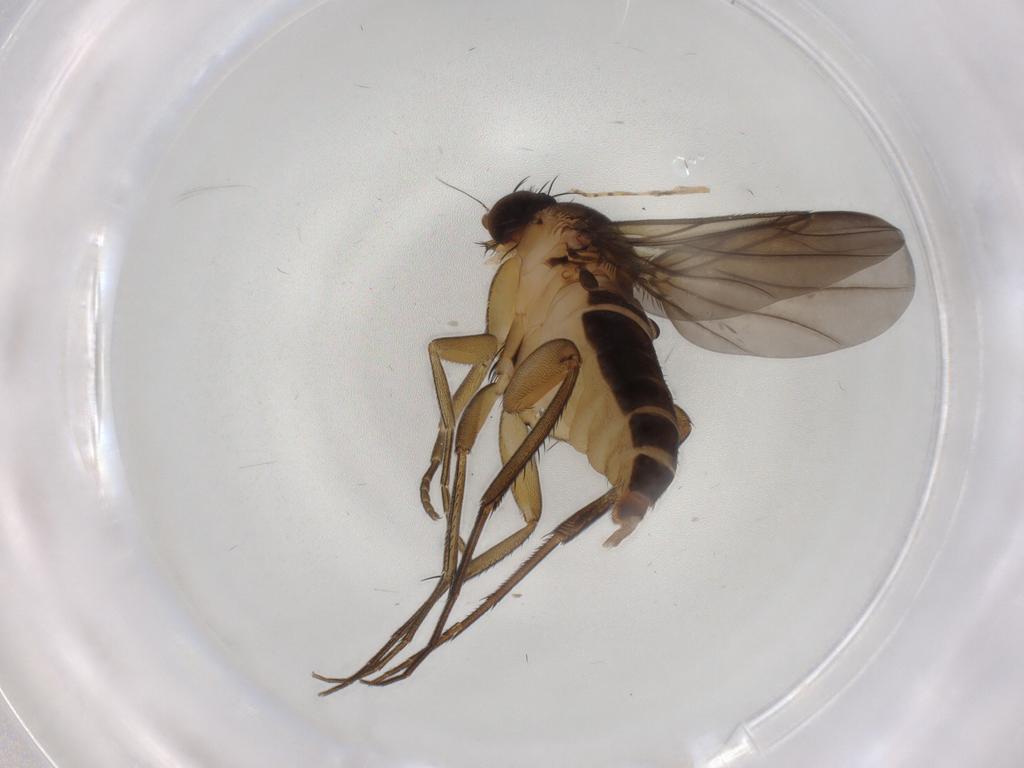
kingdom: Animalia
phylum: Arthropoda
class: Insecta
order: Diptera
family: Phoridae
